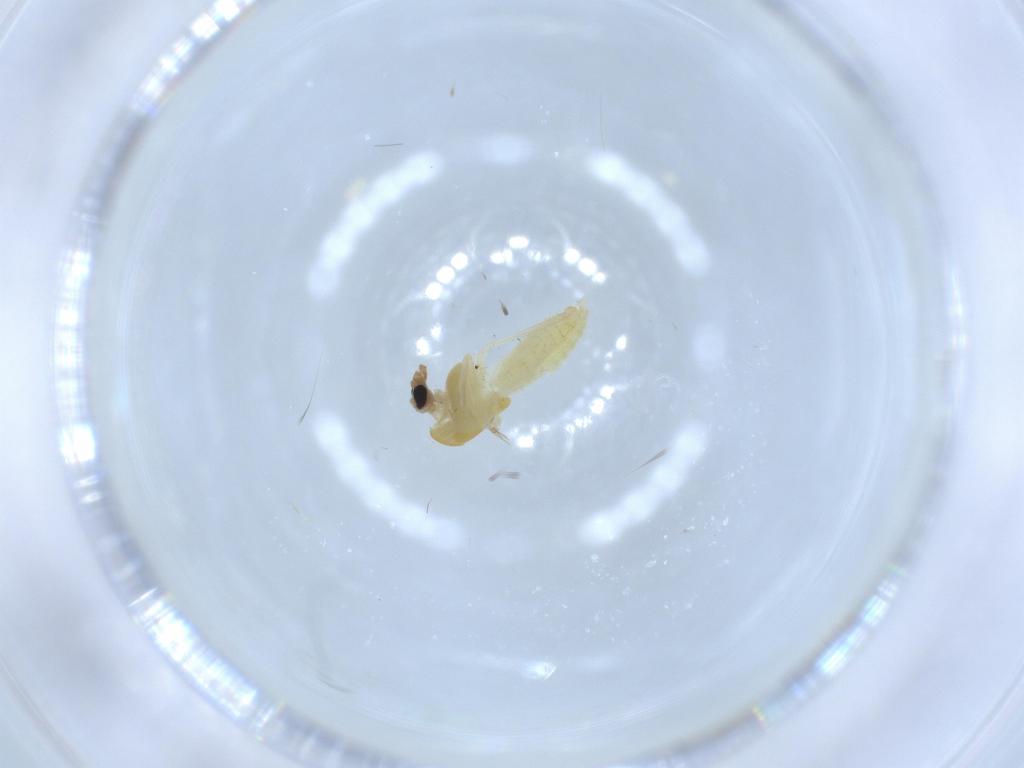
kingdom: Animalia
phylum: Arthropoda
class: Insecta
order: Diptera
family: Chironomidae
